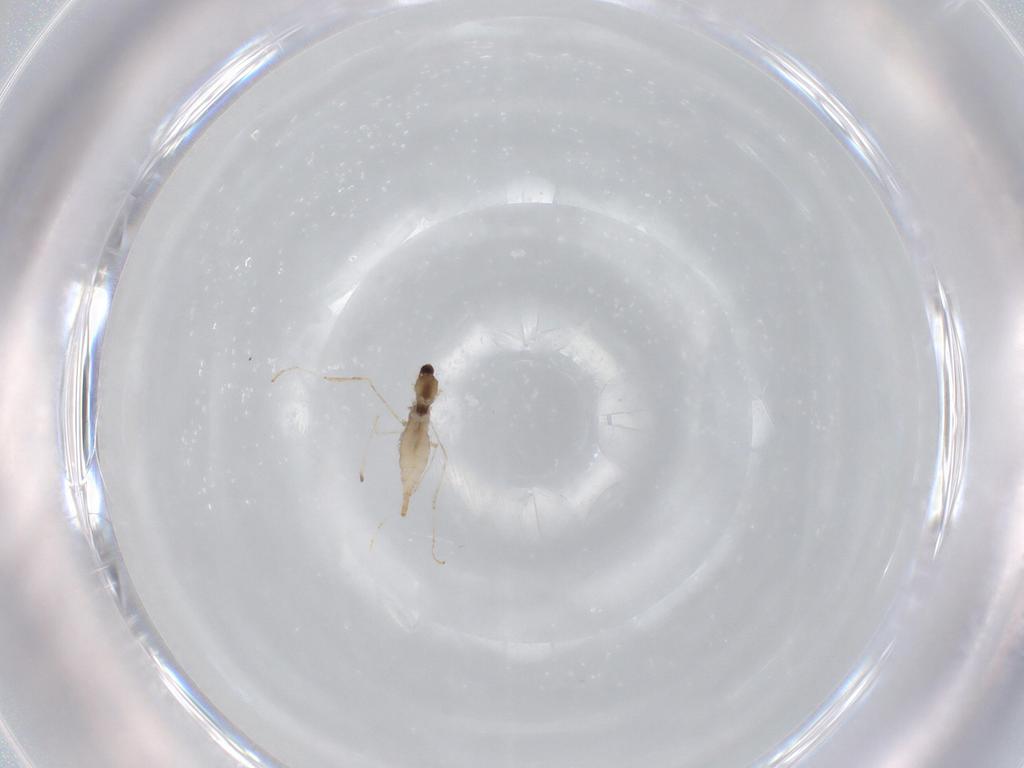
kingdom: Animalia
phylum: Arthropoda
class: Insecta
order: Diptera
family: Cecidomyiidae
